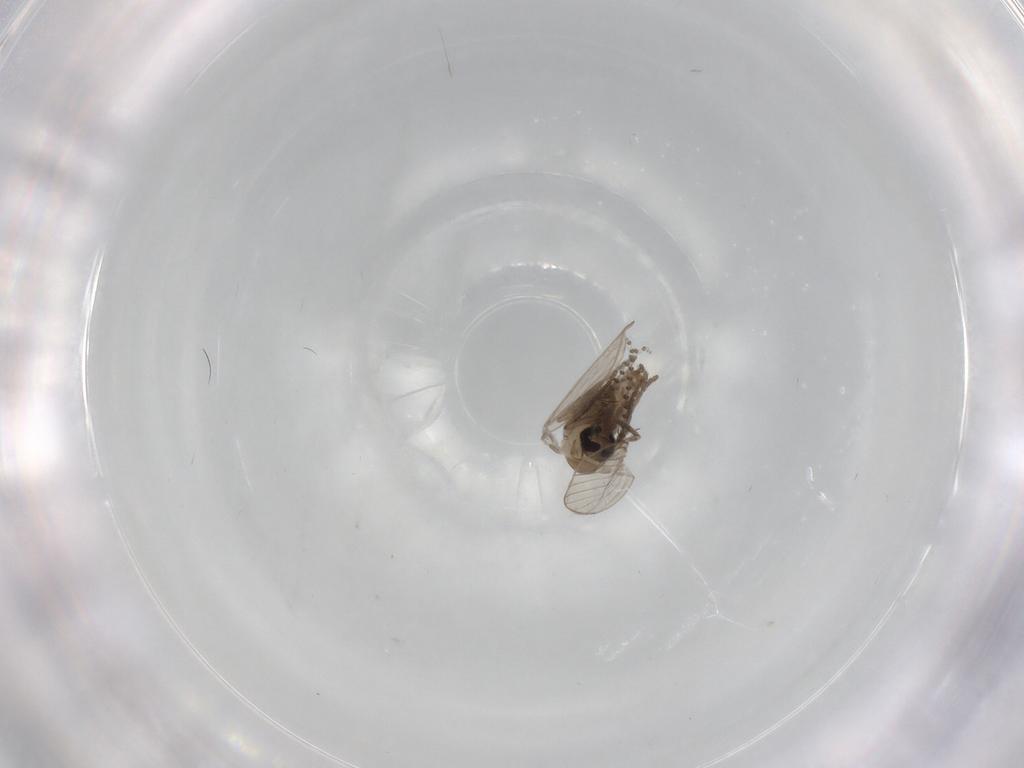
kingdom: Animalia
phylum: Arthropoda
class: Insecta
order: Diptera
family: Psychodidae
